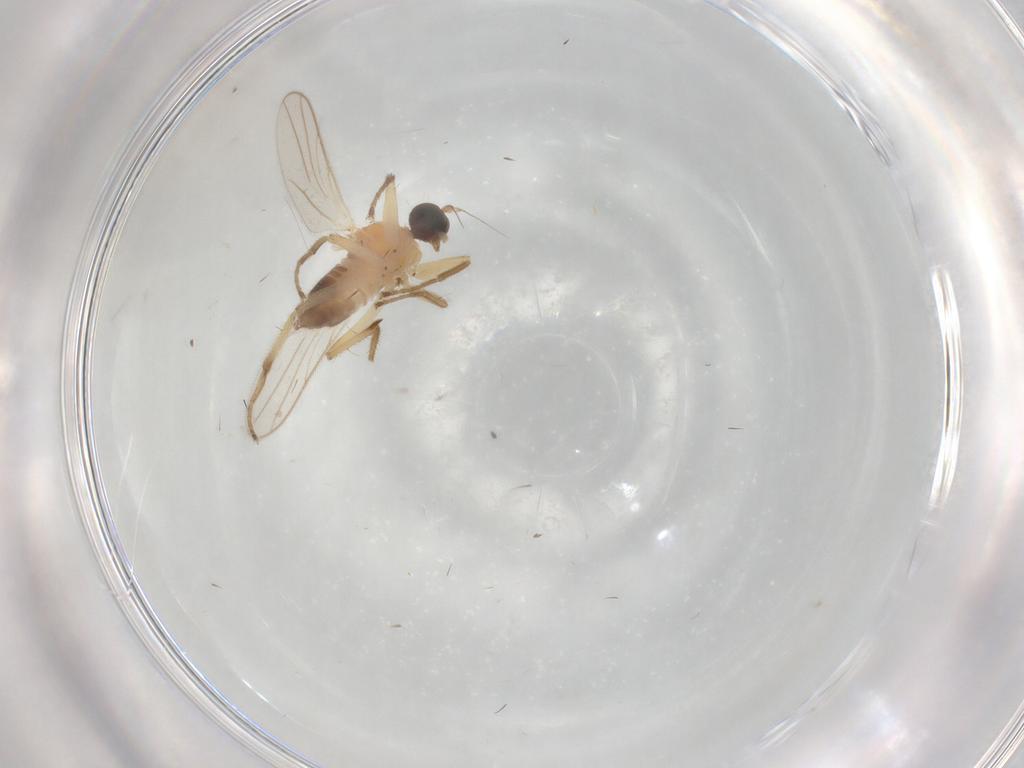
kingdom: Animalia
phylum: Arthropoda
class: Insecta
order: Diptera
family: Hybotidae
